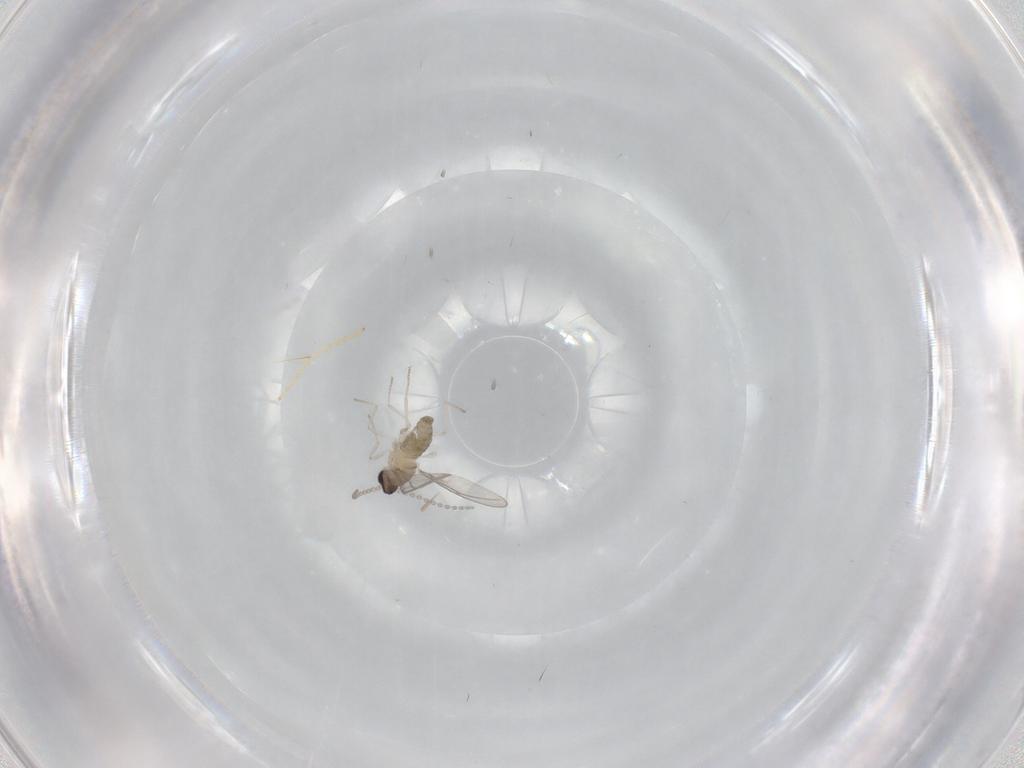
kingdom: Animalia
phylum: Arthropoda
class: Insecta
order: Diptera
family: Cecidomyiidae
